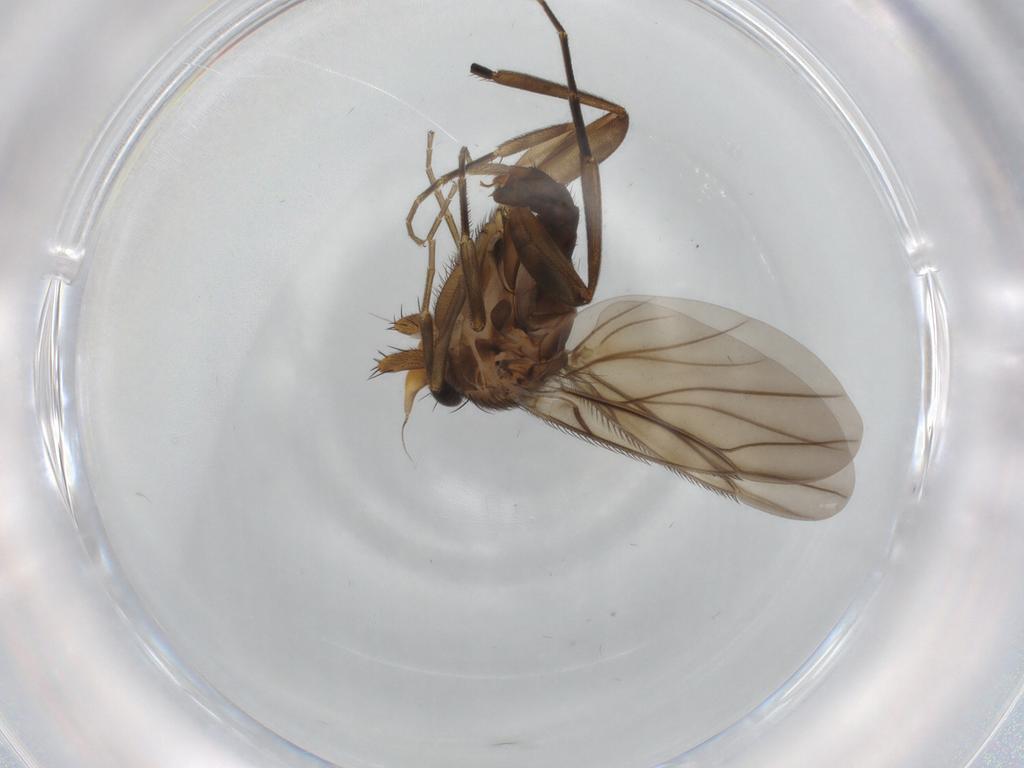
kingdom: Animalia
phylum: Arthropoda
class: Insecta
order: Diptera
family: Phoridae
